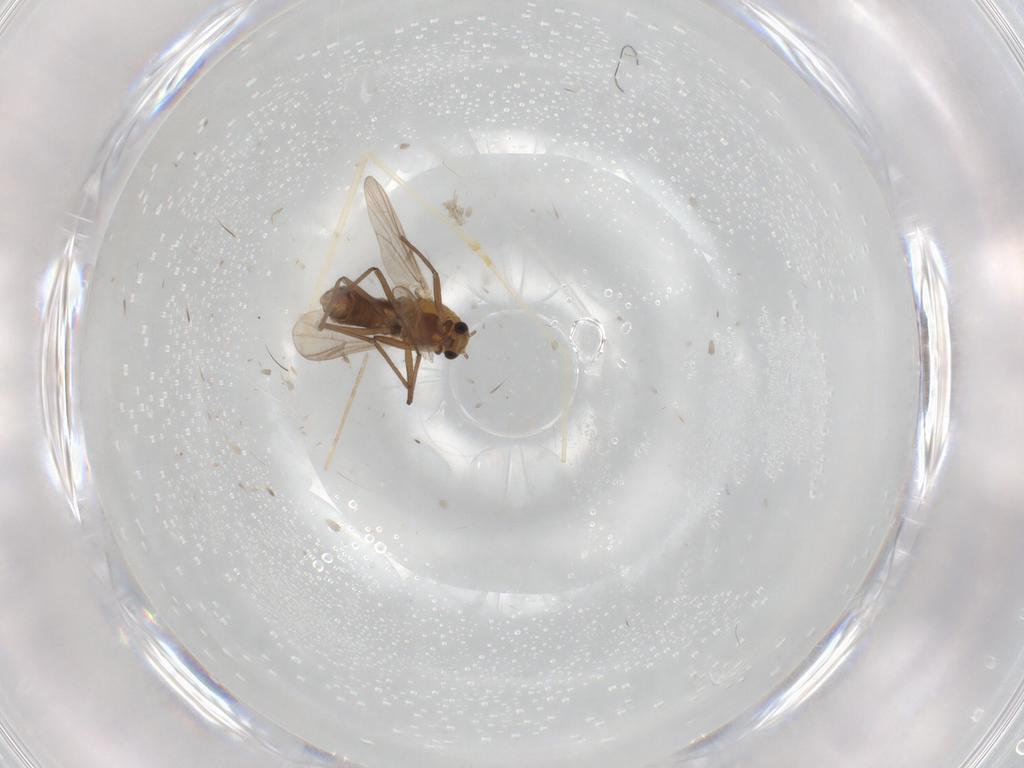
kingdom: Animalia
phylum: Arthropoda
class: Insecta
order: Diptera
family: Chironomidae
